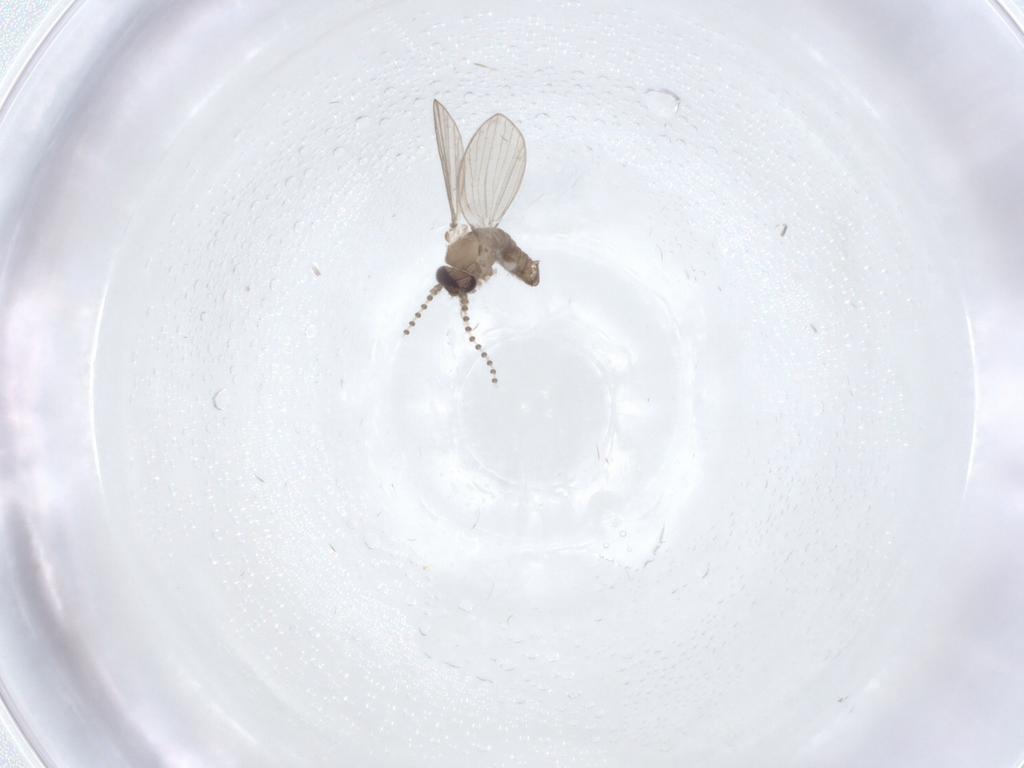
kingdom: Animalia
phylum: Arthropoda
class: Insecta
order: Diptera
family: Psychodidae
